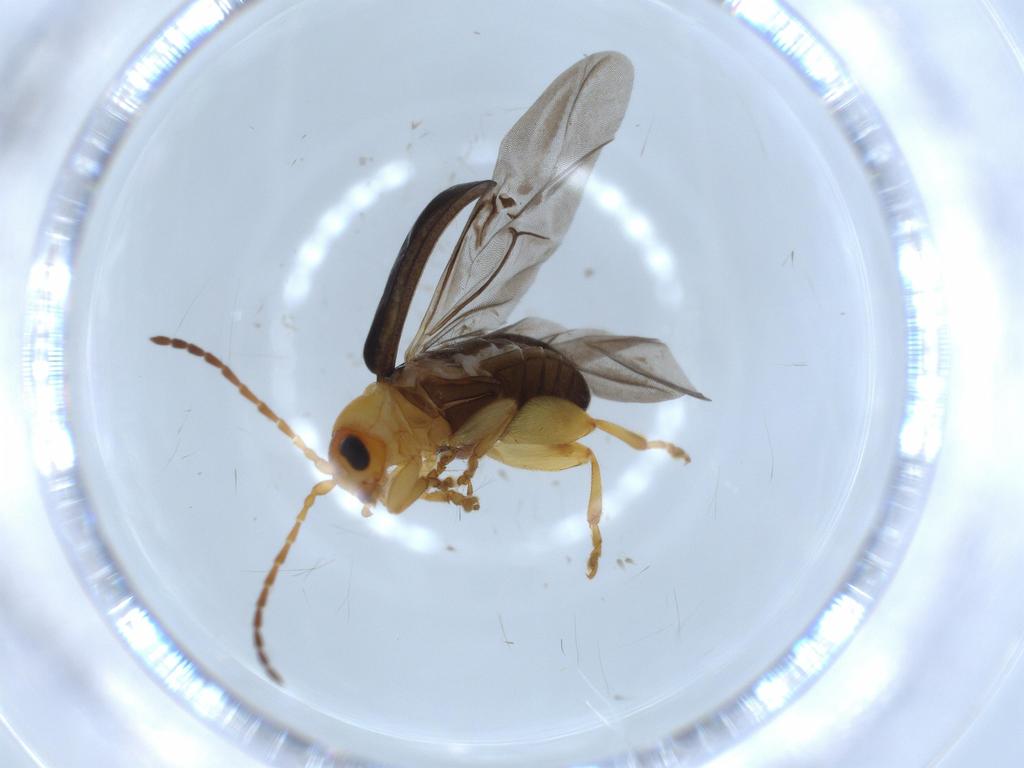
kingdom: Animalia
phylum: Arthropoda
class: Insecta
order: Coleoptera
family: Chrysomelidae
